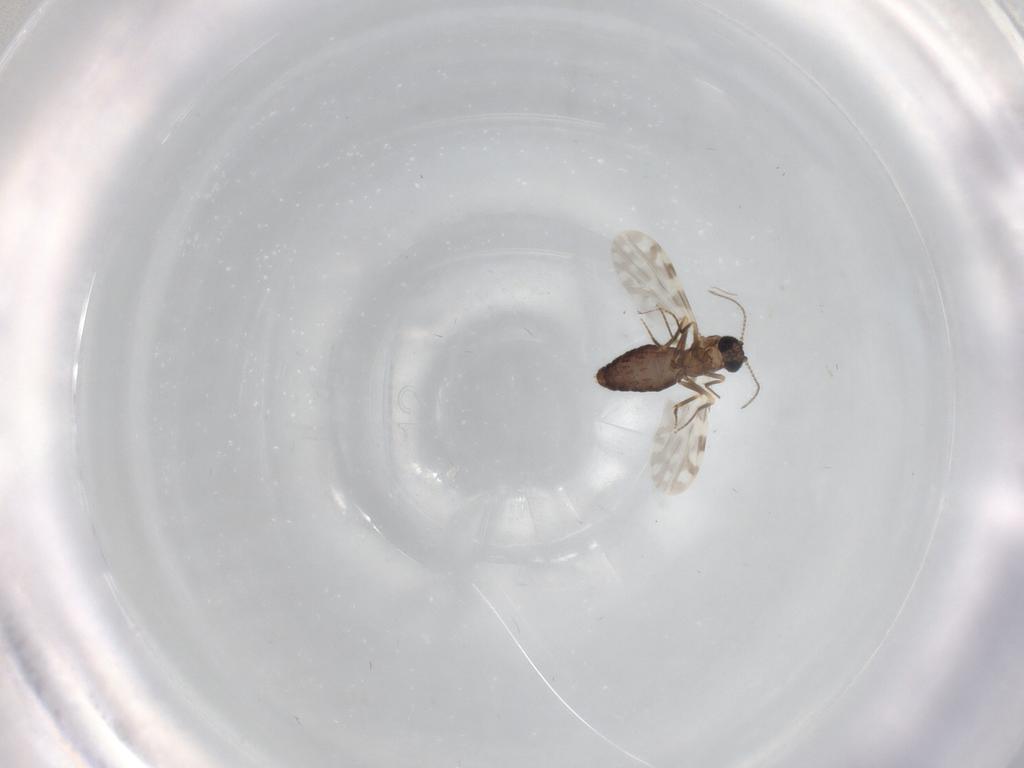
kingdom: Animalia
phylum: Arthropoda
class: Insecta
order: Diptera
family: Ceratopogonidae
